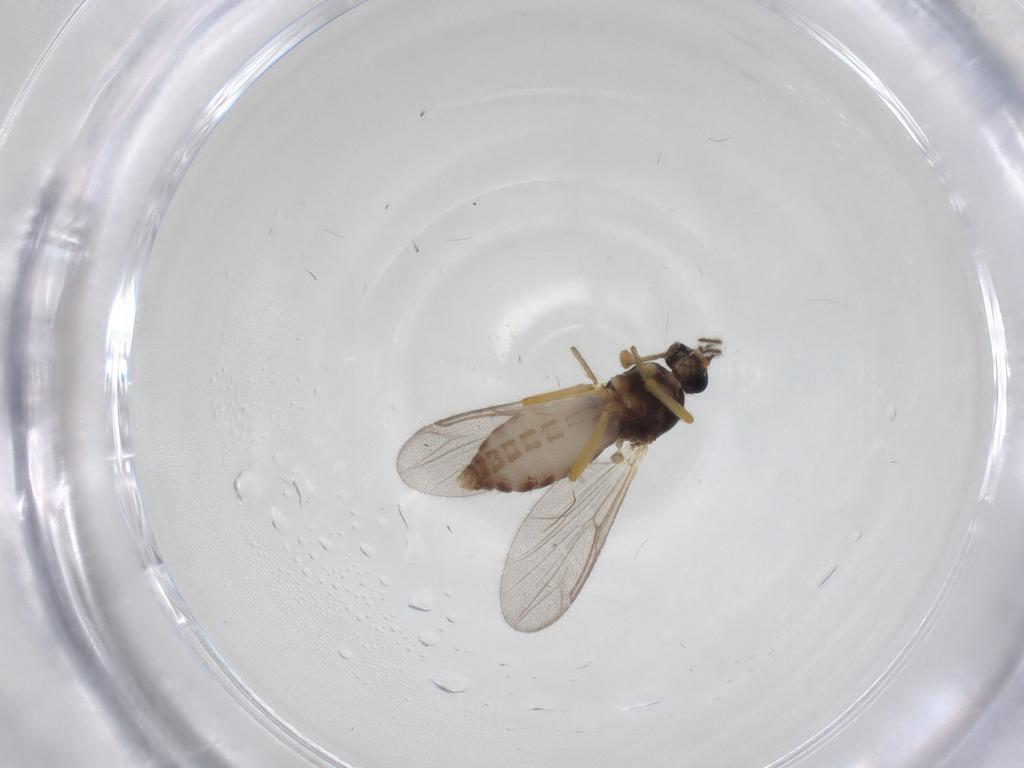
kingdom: Animalia
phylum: Arthropoda
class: Insecta
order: Diptera
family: Ceratopogonidae
